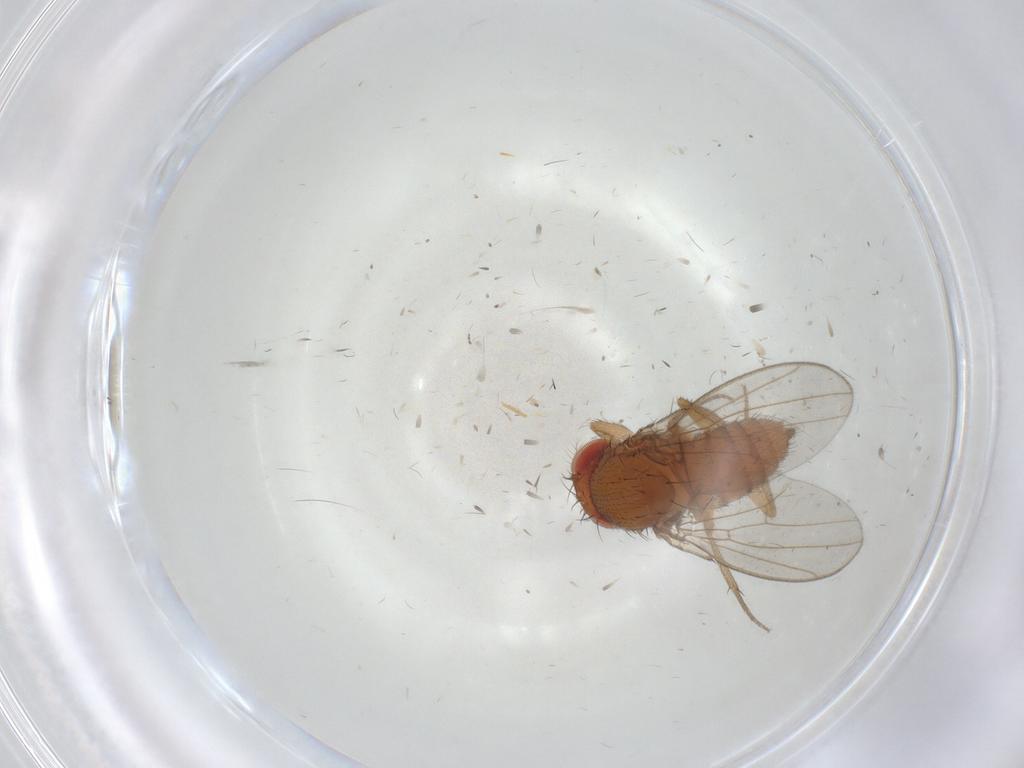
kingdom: Animalia
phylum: Arthropoda
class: Insecta
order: Diptera
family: Drosophilidae
